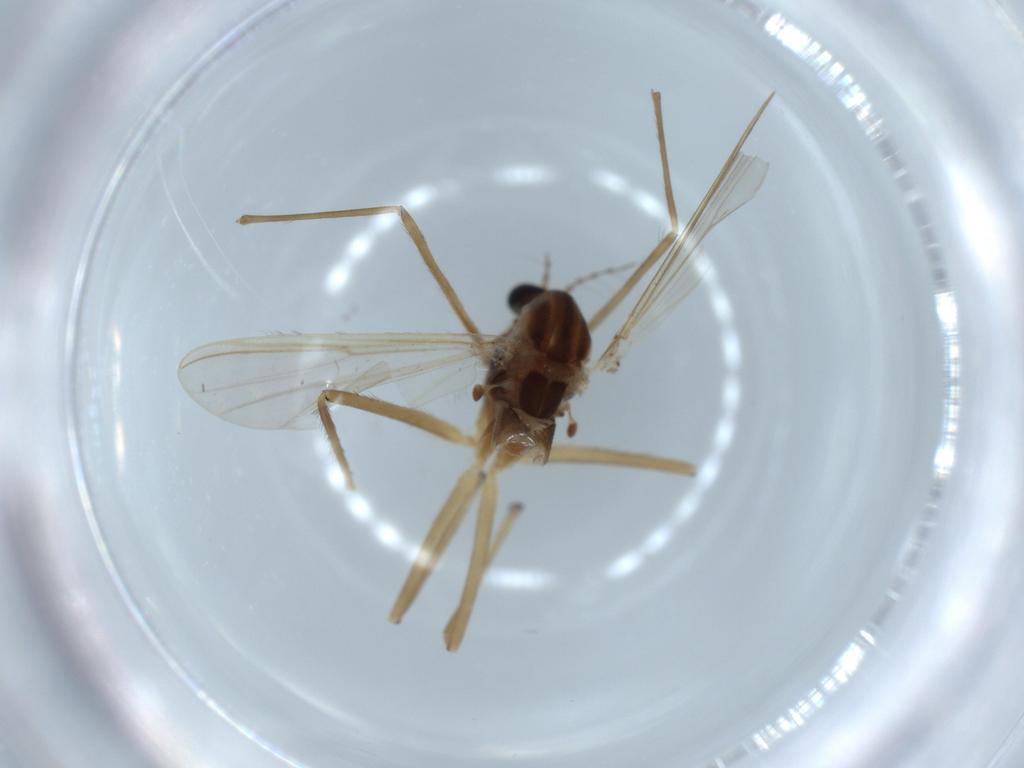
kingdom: Animalia
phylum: Arthropoda
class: Insecta
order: Diptera
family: Chironomidae
